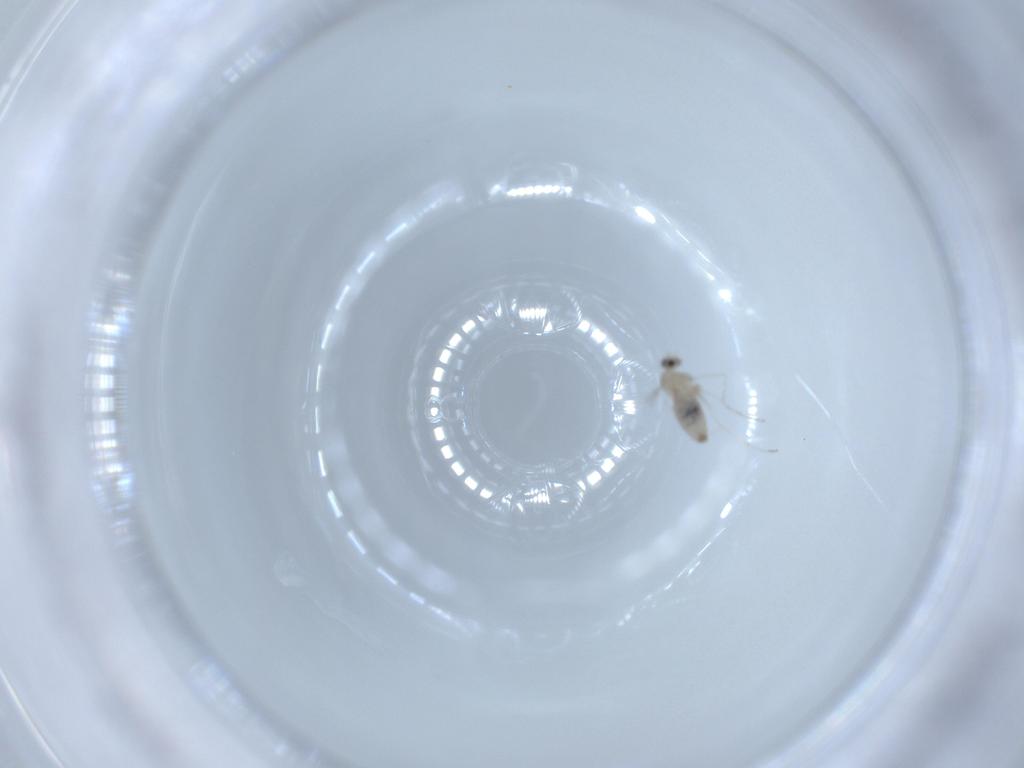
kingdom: Animalia
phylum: Arthropoda
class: Insecta
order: Diptera
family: Cecidomyiidae
